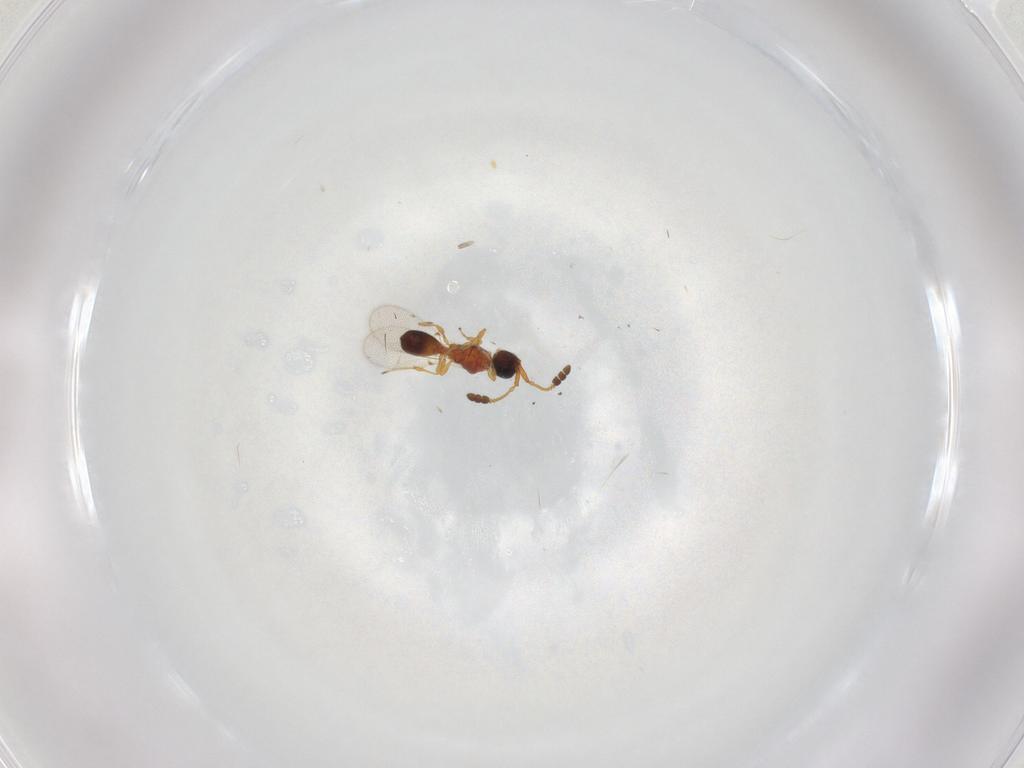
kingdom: Animalia
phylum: Arthropoda
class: Insecta
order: Hymenoptera
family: Diapriidae
